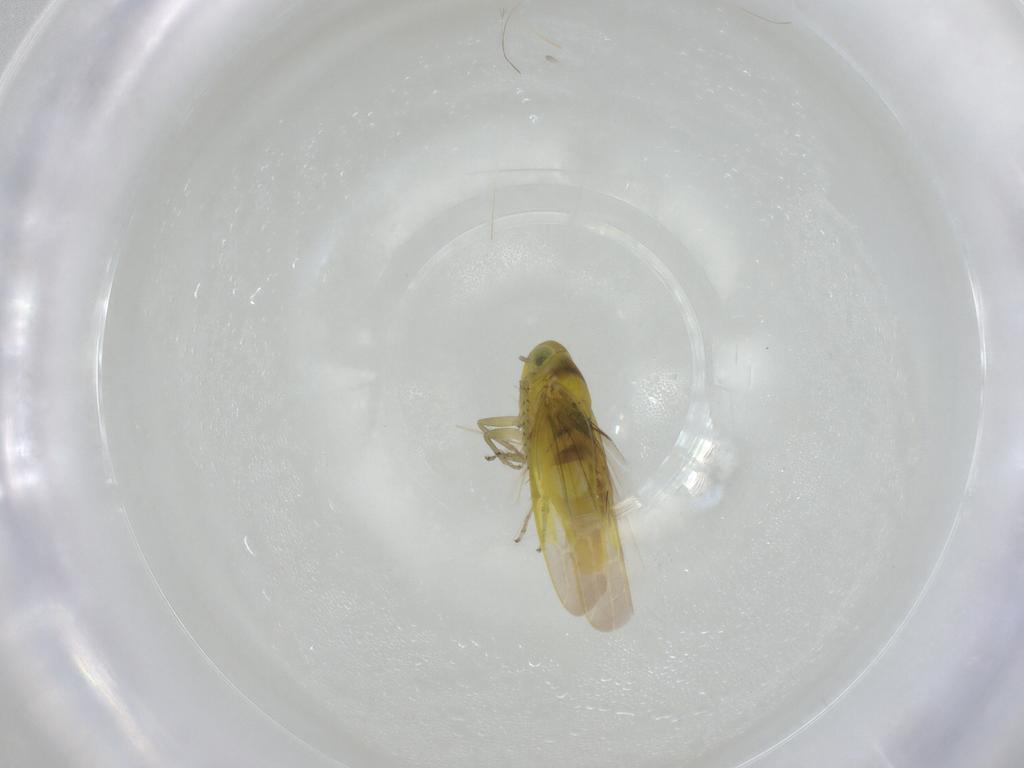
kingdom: Animalia
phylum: Arthropoda
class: Insecta
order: Hymenoptera
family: Dryinidae
